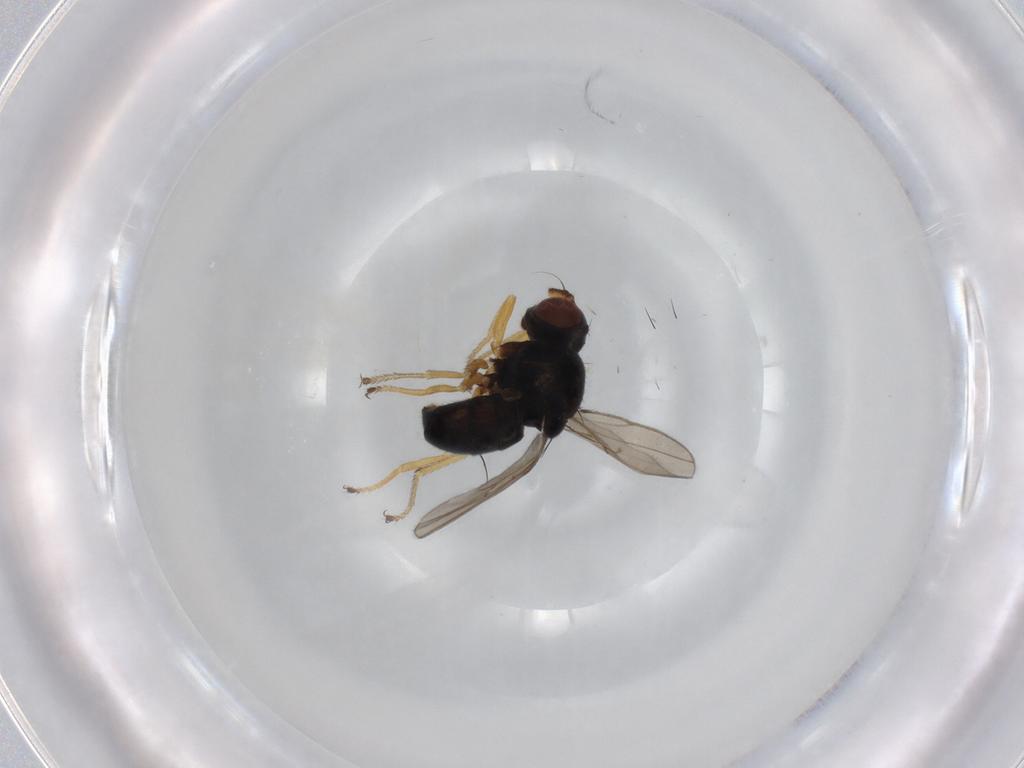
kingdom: Animalia
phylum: Arthropoda
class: Insecta
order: Diptera
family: Ephydridae
